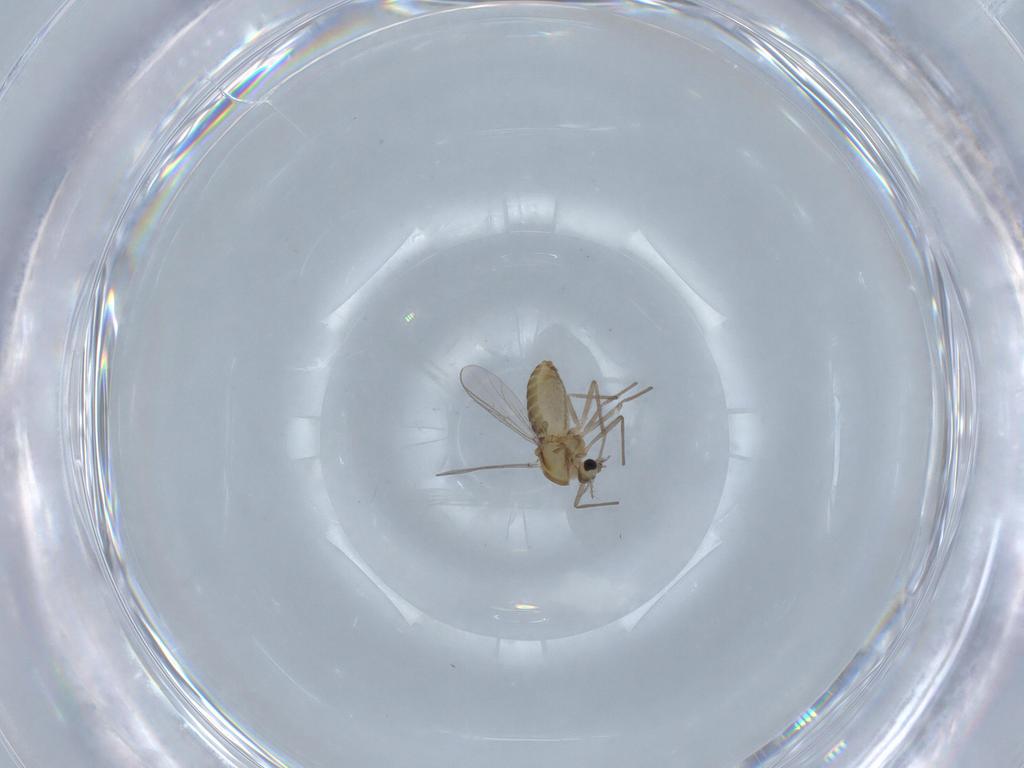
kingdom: Animalia
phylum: Arthropoda
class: Insecta
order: Diptera
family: Chironomidae
